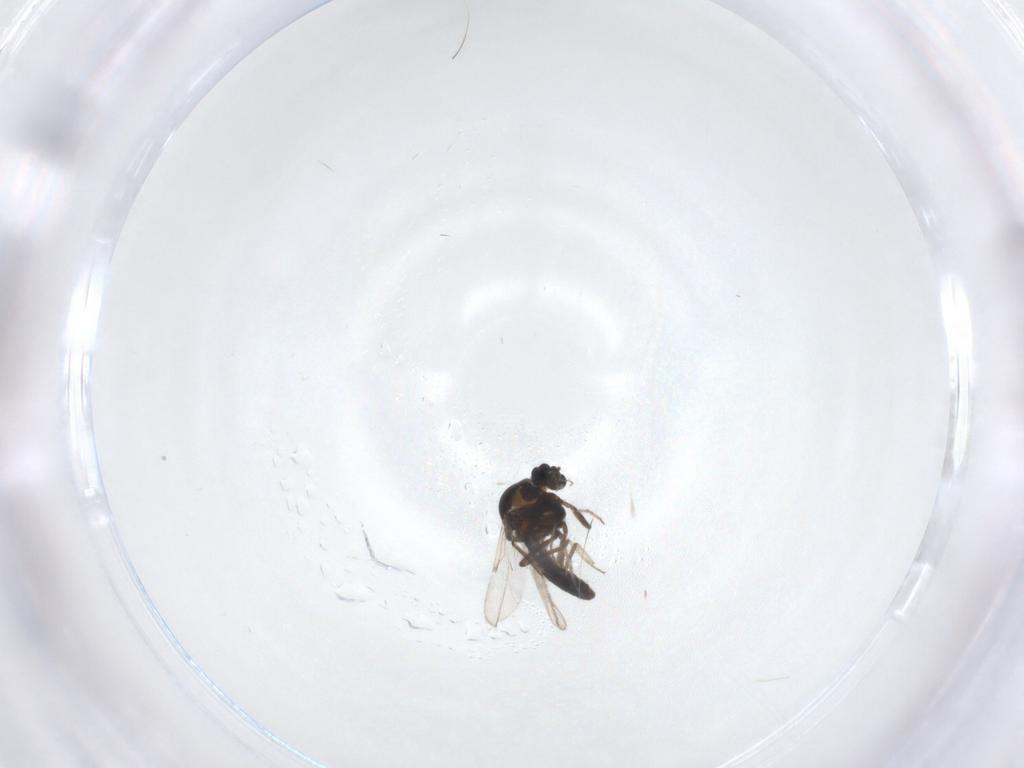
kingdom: Animalia
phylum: Arthropoda
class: Insecta
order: Diptera
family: Ceratopogonidae
